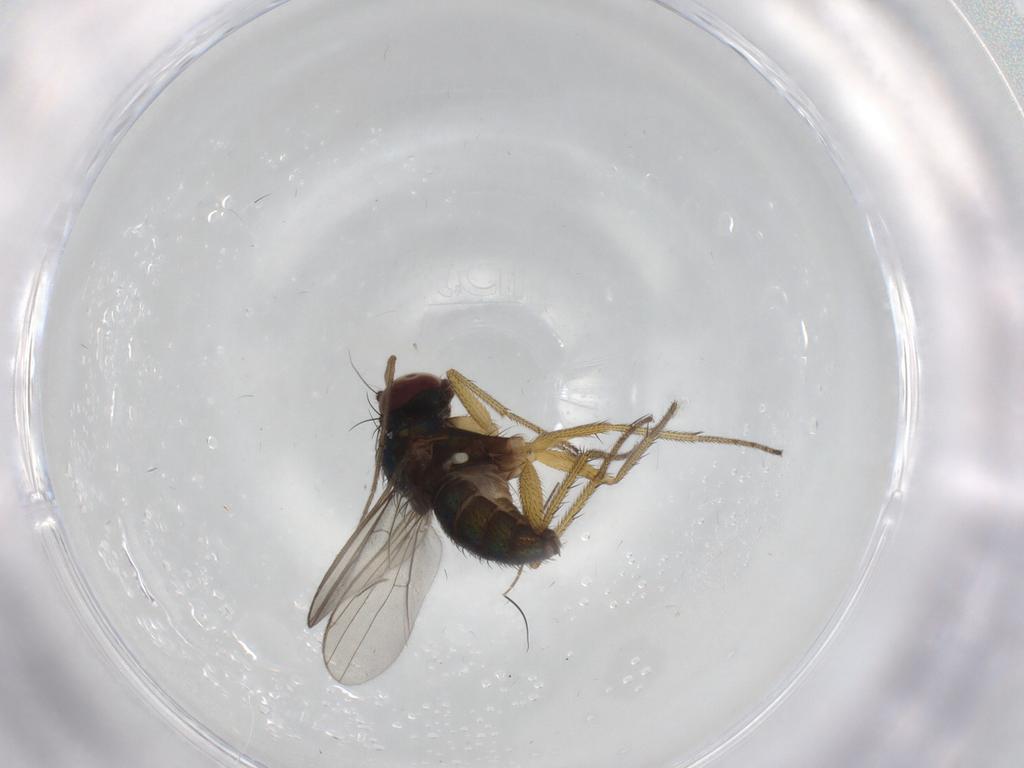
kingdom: Animalia
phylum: Arthropoda
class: Insecta
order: Diptera
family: Dolichopodidae
